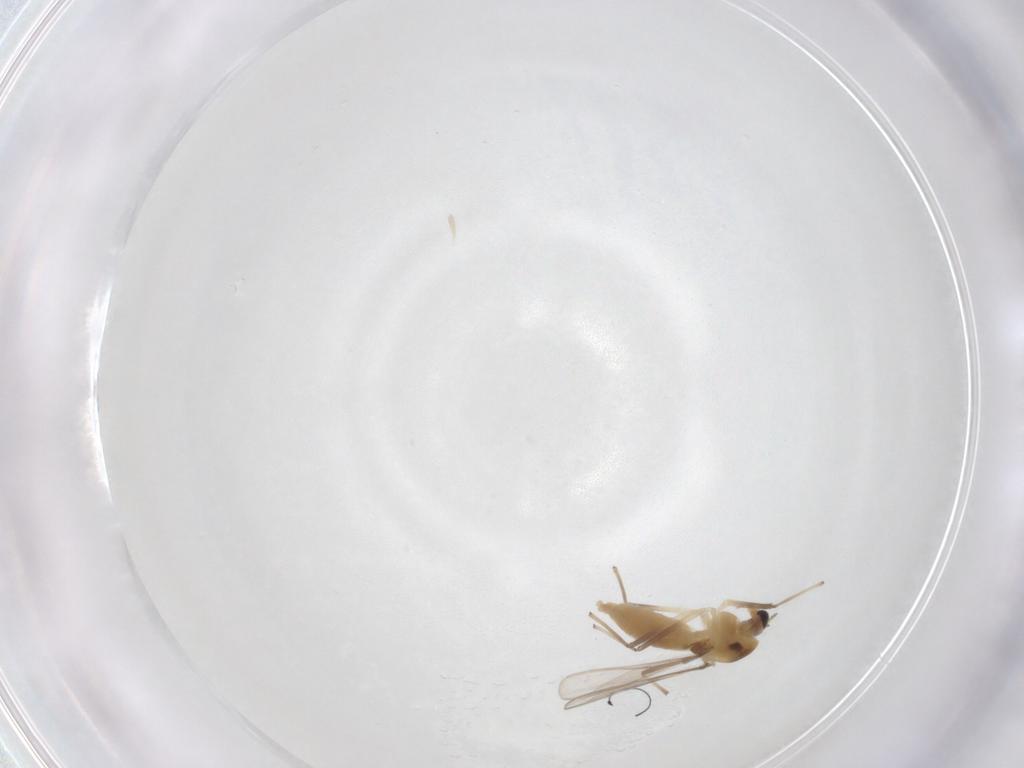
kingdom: Animalia
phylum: Arthropoda
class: Insecta
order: Diptera
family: Chironomidae
